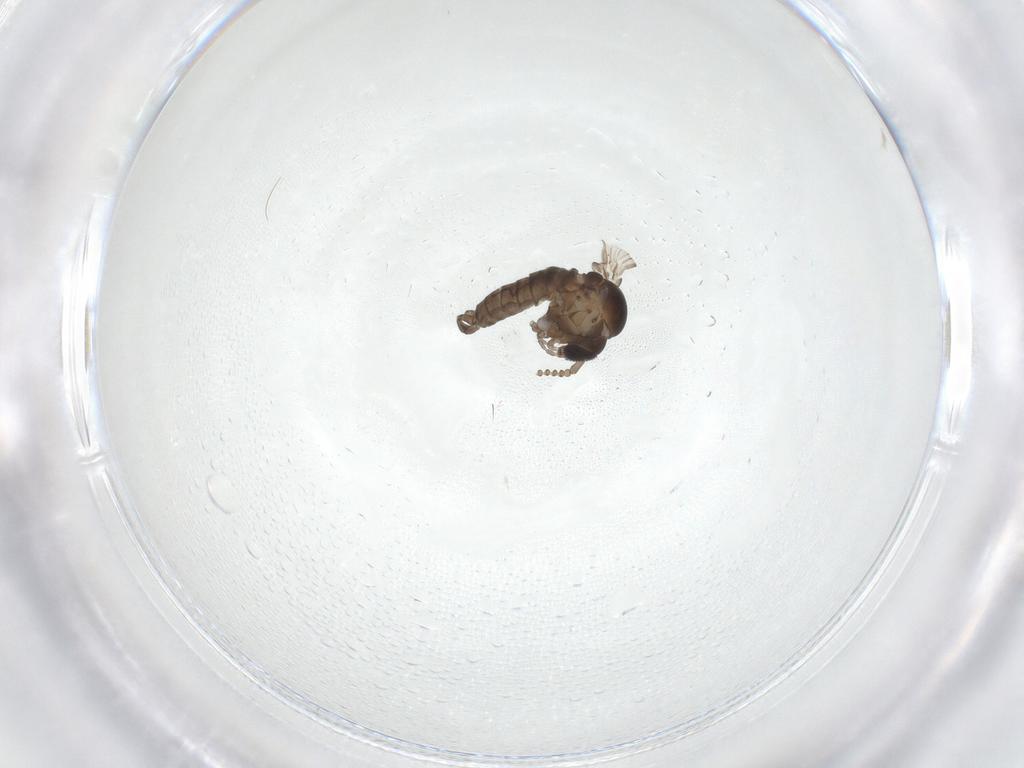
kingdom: Animalia
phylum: Arthropoda
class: Insecta
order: Diptera
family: Psychodidae
